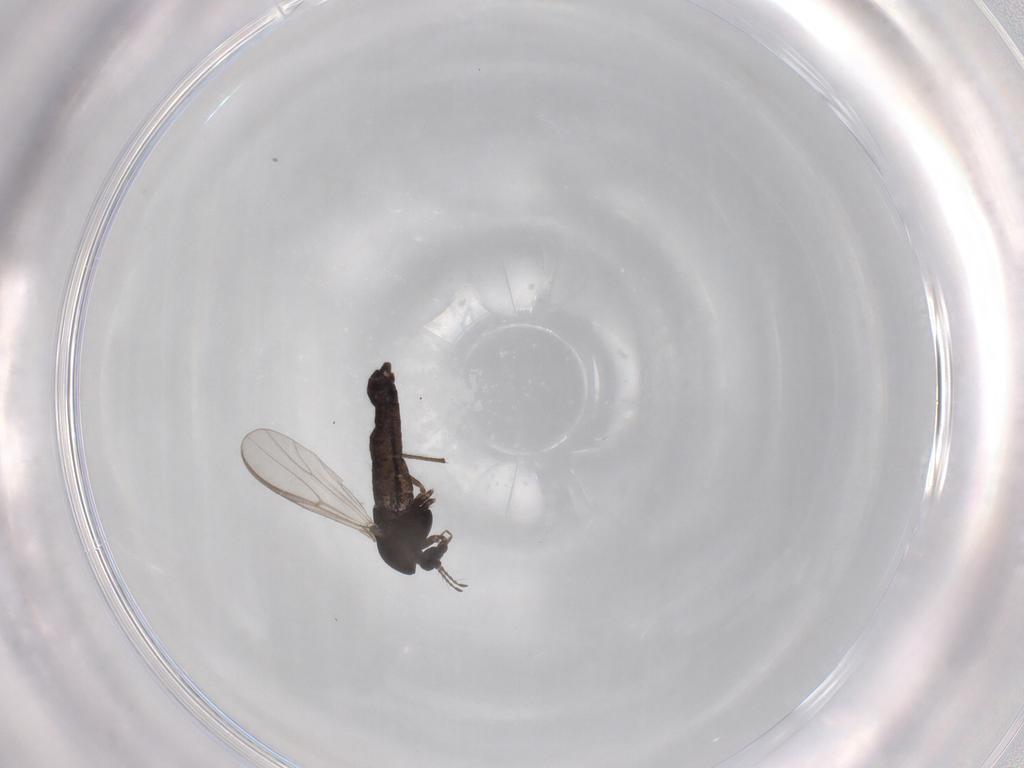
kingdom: Animalia
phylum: Arthropoda
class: Insecta
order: Diptera
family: Chironomidae
